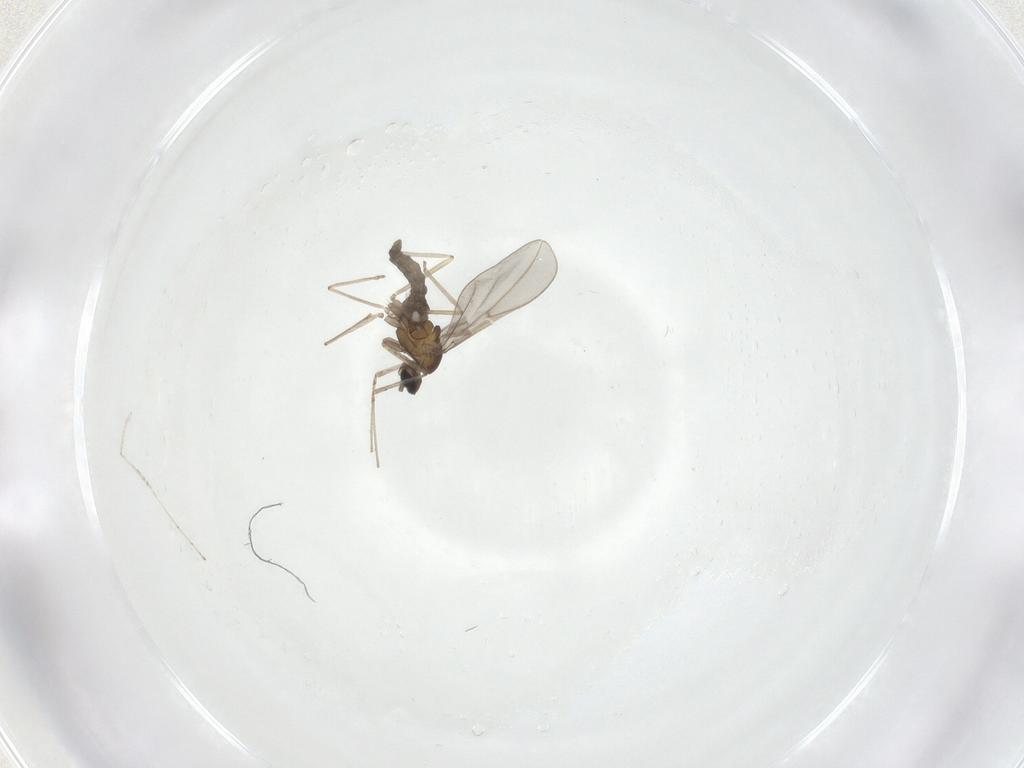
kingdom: Animalia
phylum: Arthropoda
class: Insecta
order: Diptera
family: Cecidomyiidae
